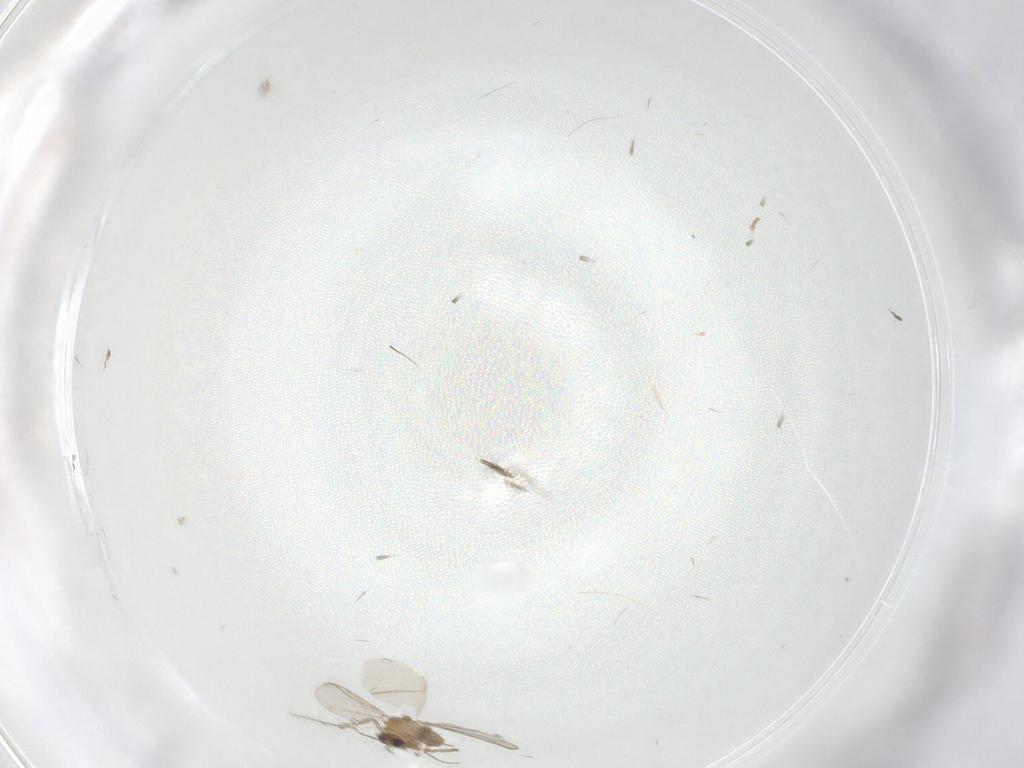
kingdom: Animalia
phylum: Arthropoda
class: Insecta
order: Diptera
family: Chironomidae
